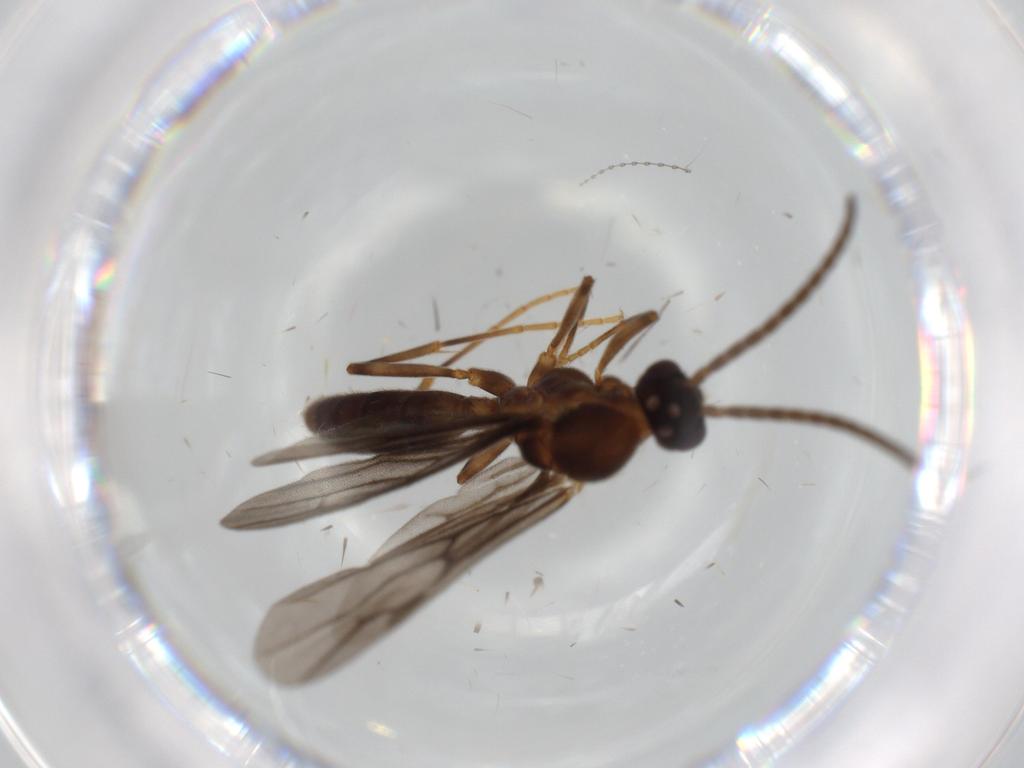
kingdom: Animalia
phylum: Arthropoda
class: Insecta
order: Hymenoptera
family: Formicidae
